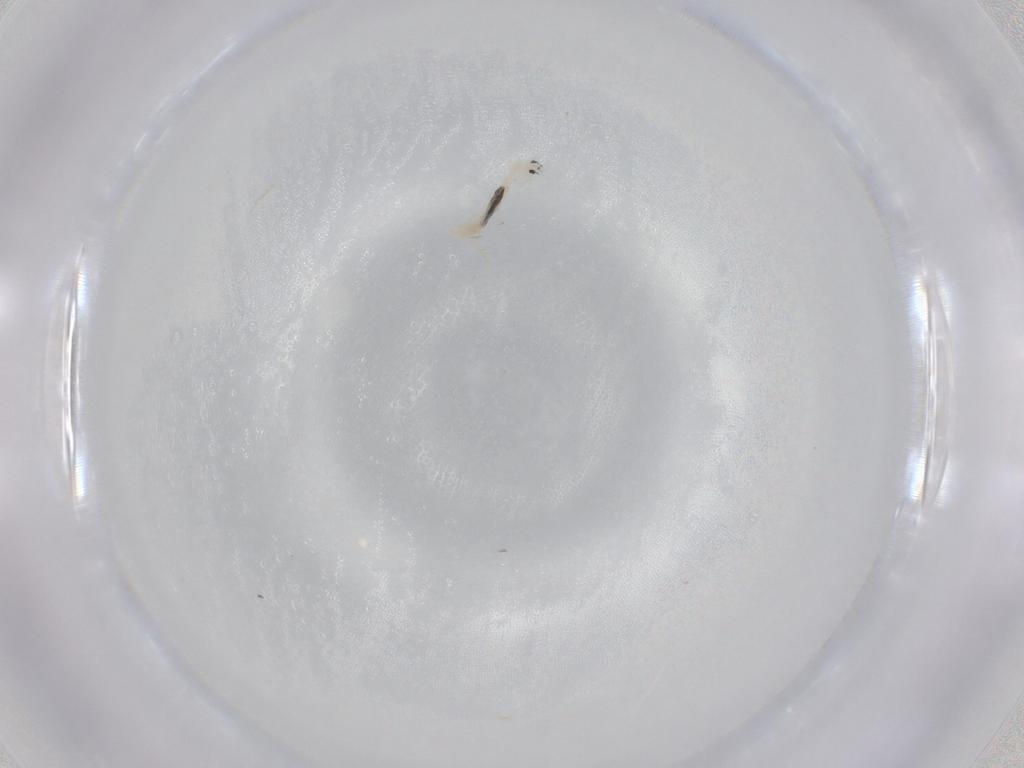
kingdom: Animalia
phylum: Arthropoda
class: Collembola
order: Entomobryomorpha
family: Entomobryidae
